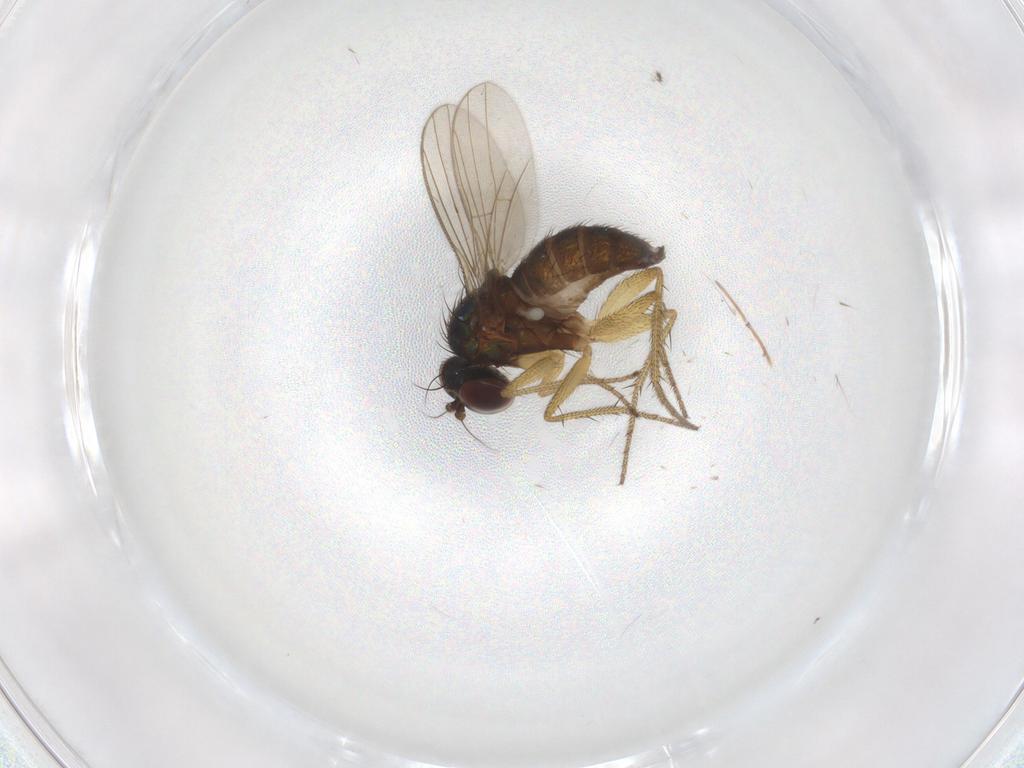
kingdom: Animalia
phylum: Arthropoda
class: Insecta
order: Diptera
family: Dolichopodidae
